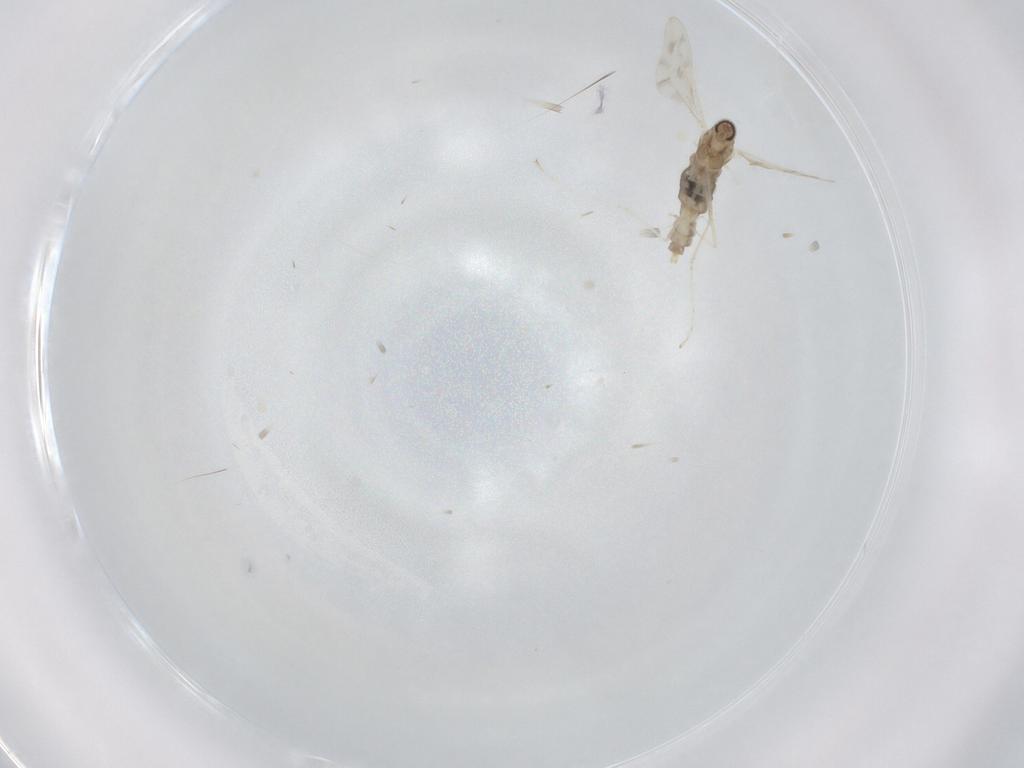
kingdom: Animalia
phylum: Arthropoda
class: Insecta
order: Diptera
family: Cecidomyiidae
